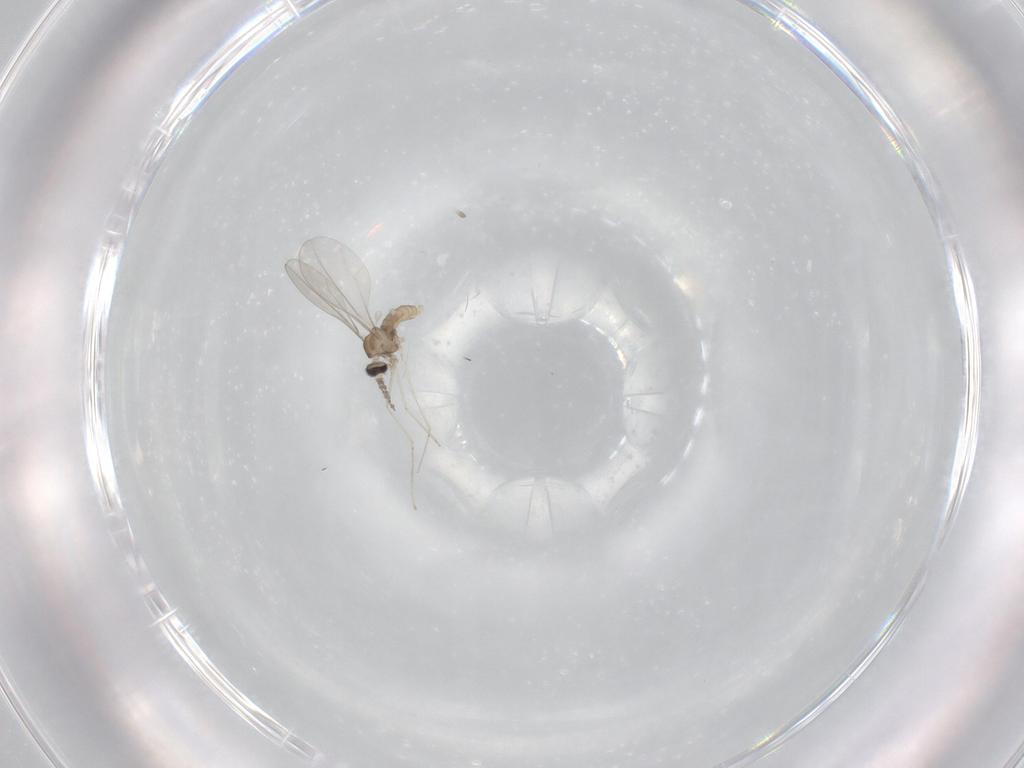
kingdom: Animalia
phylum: Arthropoda
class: Insecta
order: Diptera
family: Cecidomyiidae
